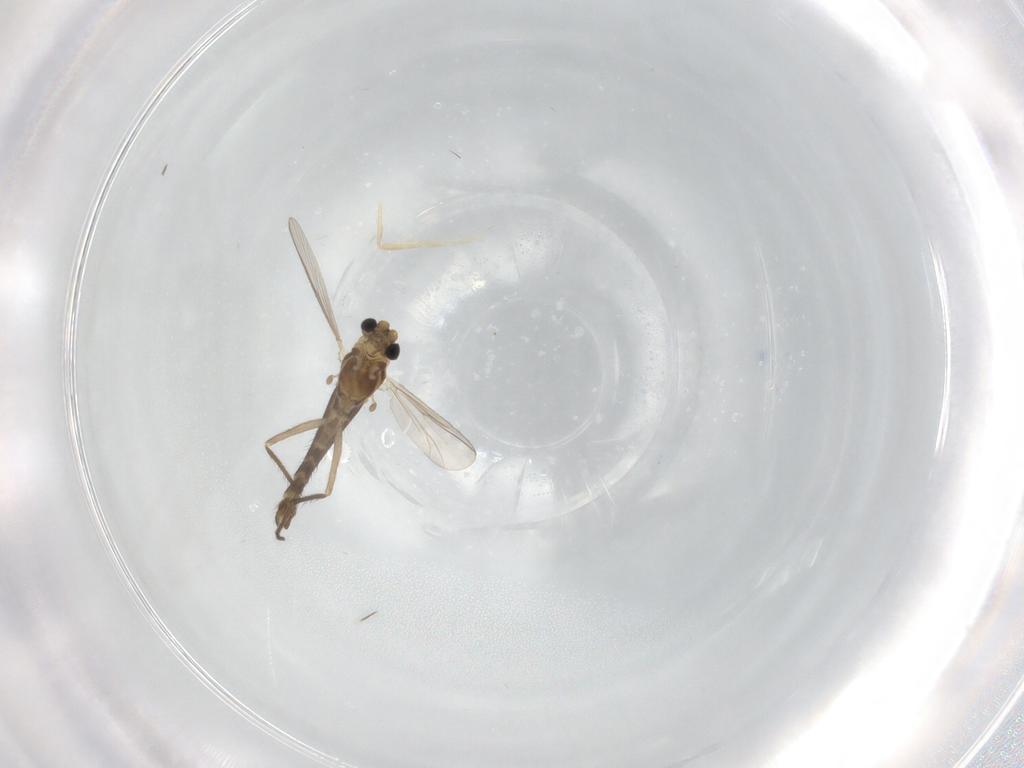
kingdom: Animalia
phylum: Arthropoda
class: Insecta
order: Diptera
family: Chironomidae
